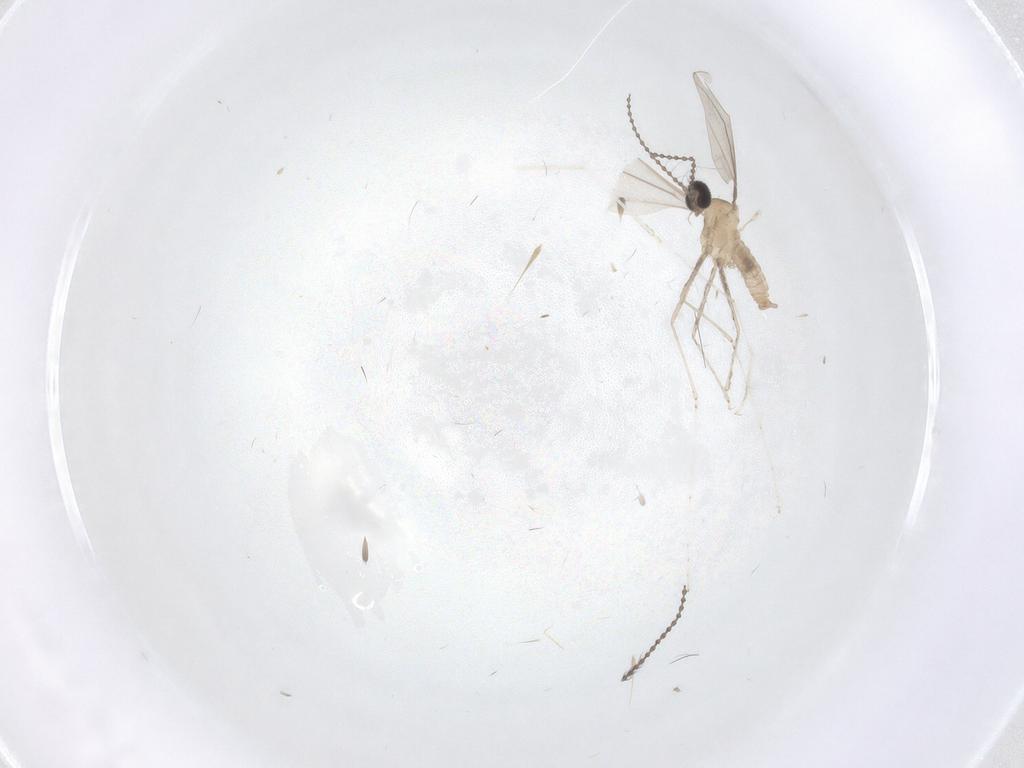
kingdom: Animalia
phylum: Arthropoda
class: Insecta
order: Diptera
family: Cecidomyiidae
